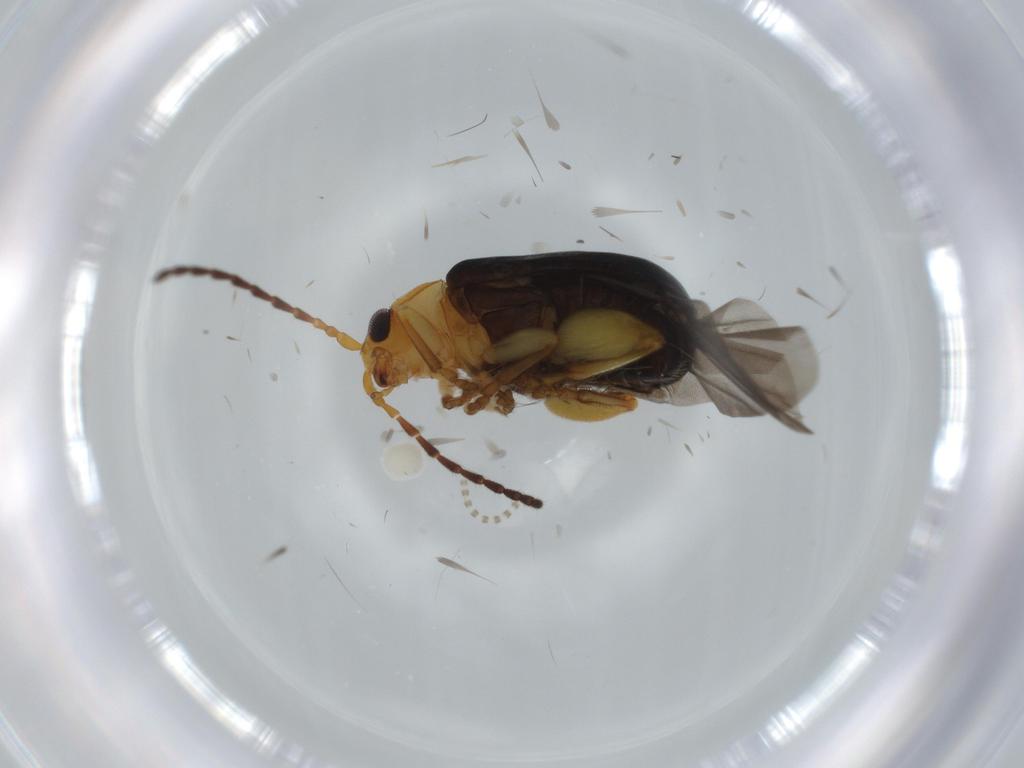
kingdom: Animalia
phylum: Arthropoda
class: Insecta
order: Coleoptera
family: Chrysomelidae
